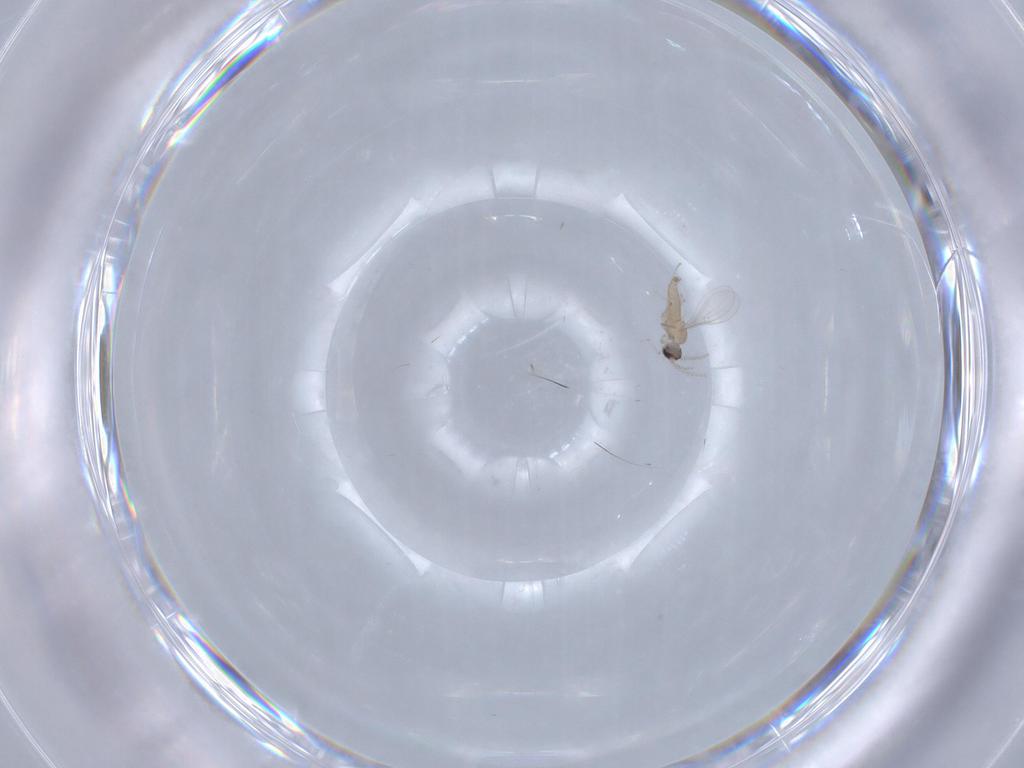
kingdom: Animalia
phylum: Arthropoda
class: Insecta
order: Diptera
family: Cecidomyiidae
